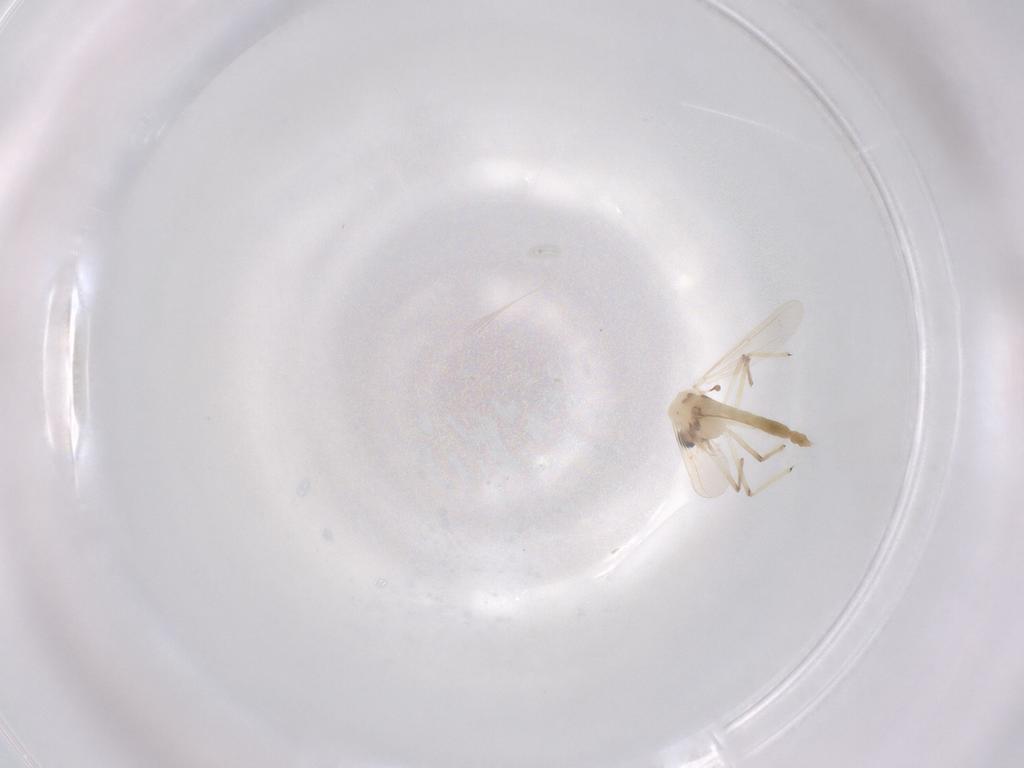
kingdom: Animalia
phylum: Arthropoda
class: Insecta
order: Diptera
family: Chironomidae
